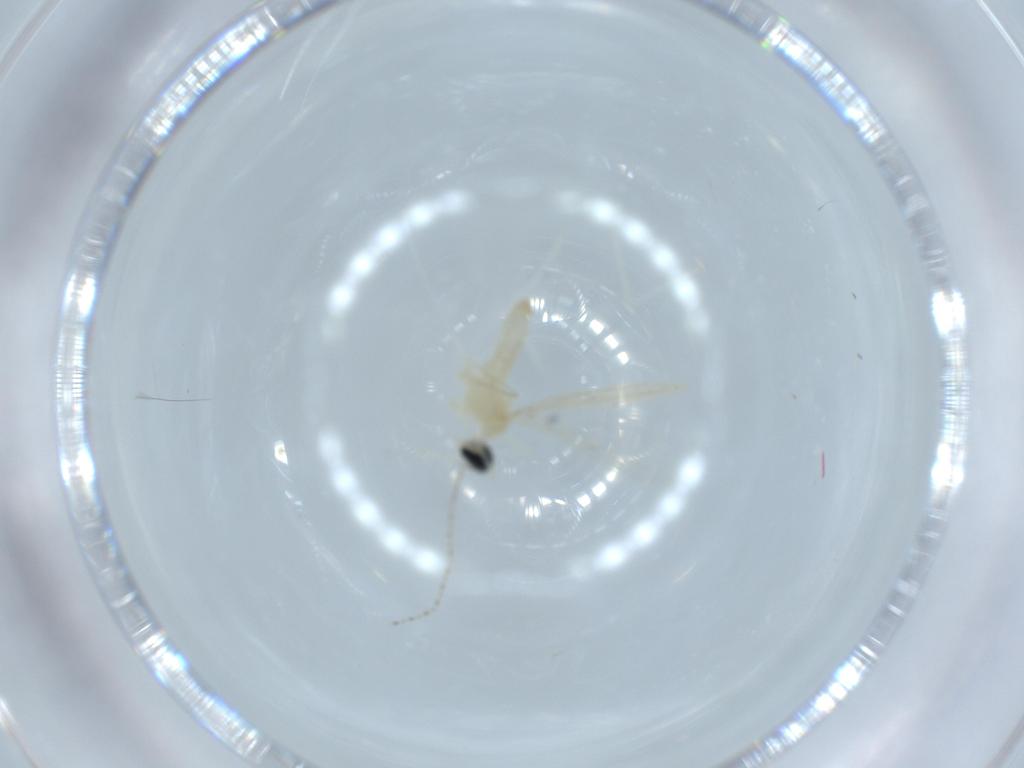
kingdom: Animalia
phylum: Arthropoda
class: Insecta
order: Diptera
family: Cecidomyiidae
